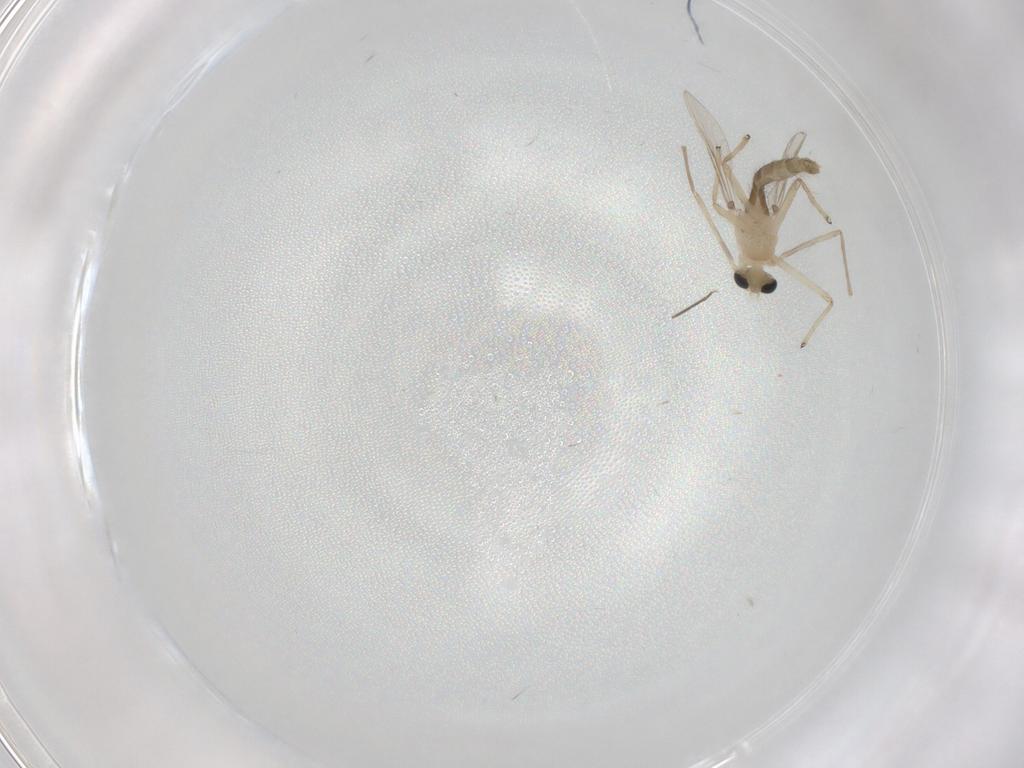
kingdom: Animalia
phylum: Arthropoda
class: Insecta
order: Diptera
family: Chironomidae
